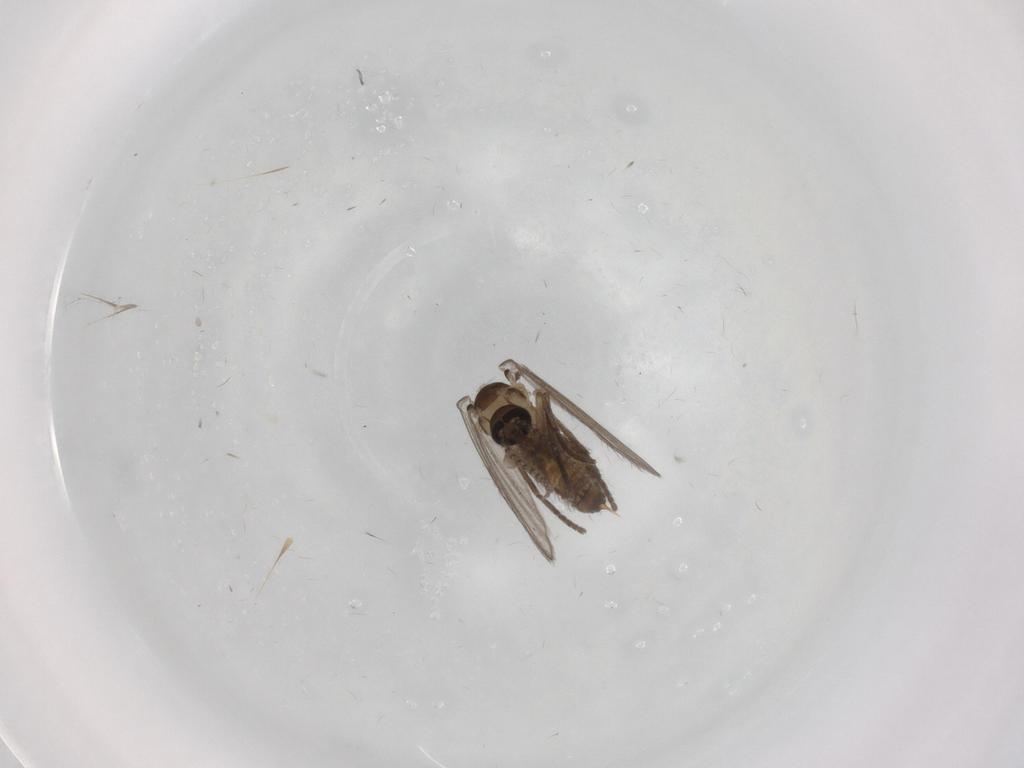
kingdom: Animalia
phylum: Arthropoda
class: Insecta
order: Diptera
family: Psychodidae
